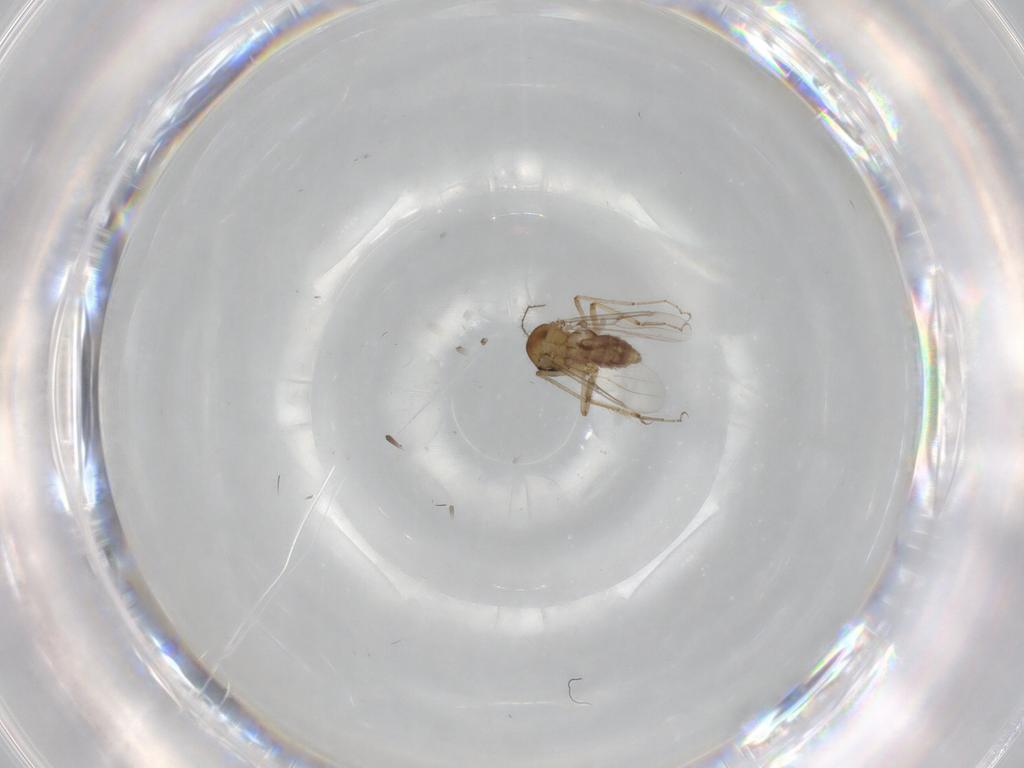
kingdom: Animalia
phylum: Arthropoda
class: Insecta
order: Diptera
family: Chironomidae
